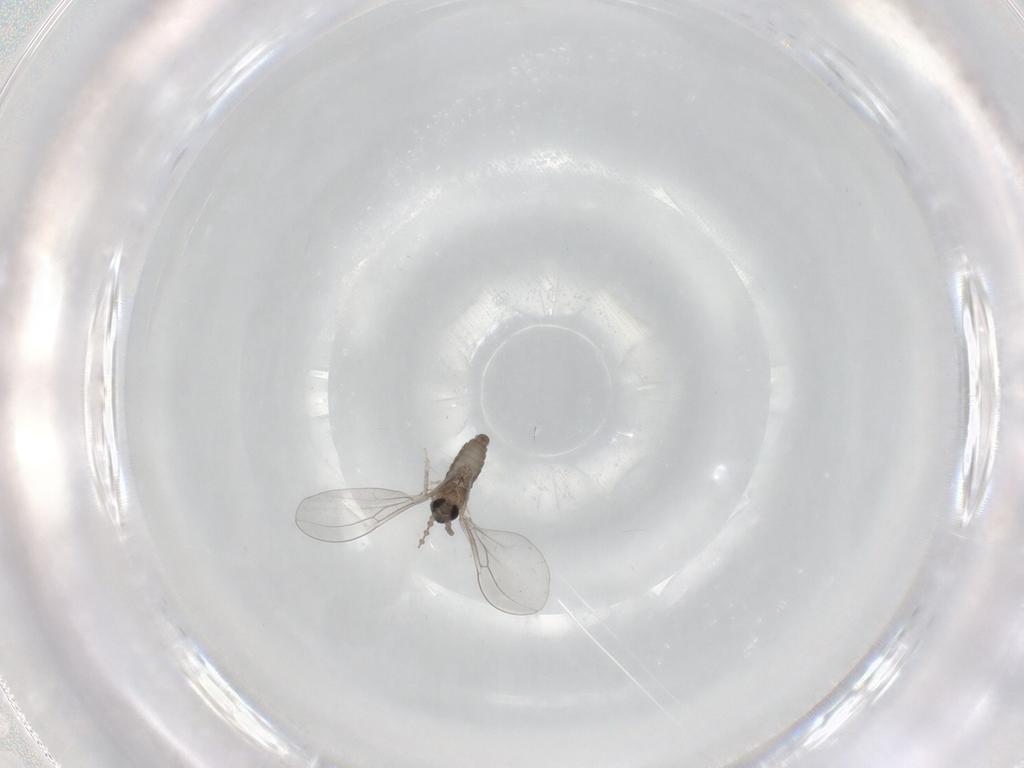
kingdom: Animalia
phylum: Arthropoda
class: Insecta
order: Diptera
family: Cecidomyiidae
